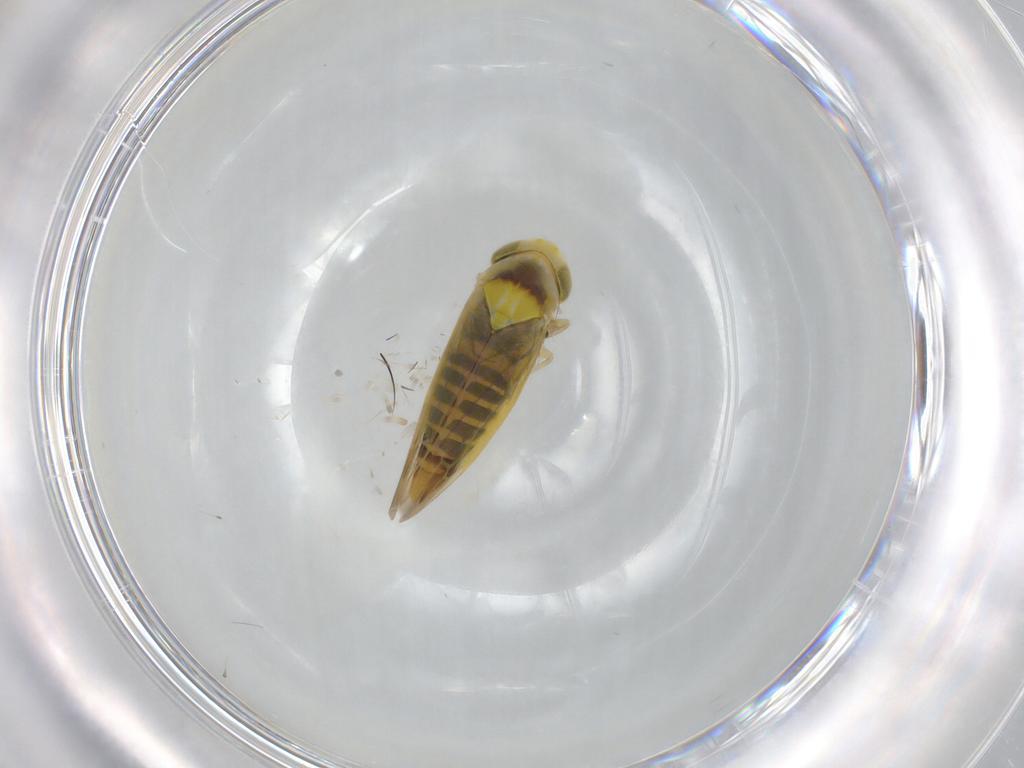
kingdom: Animalia
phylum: Arthropoda
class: Insecta
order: Hemiptera
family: Cicadellidae
